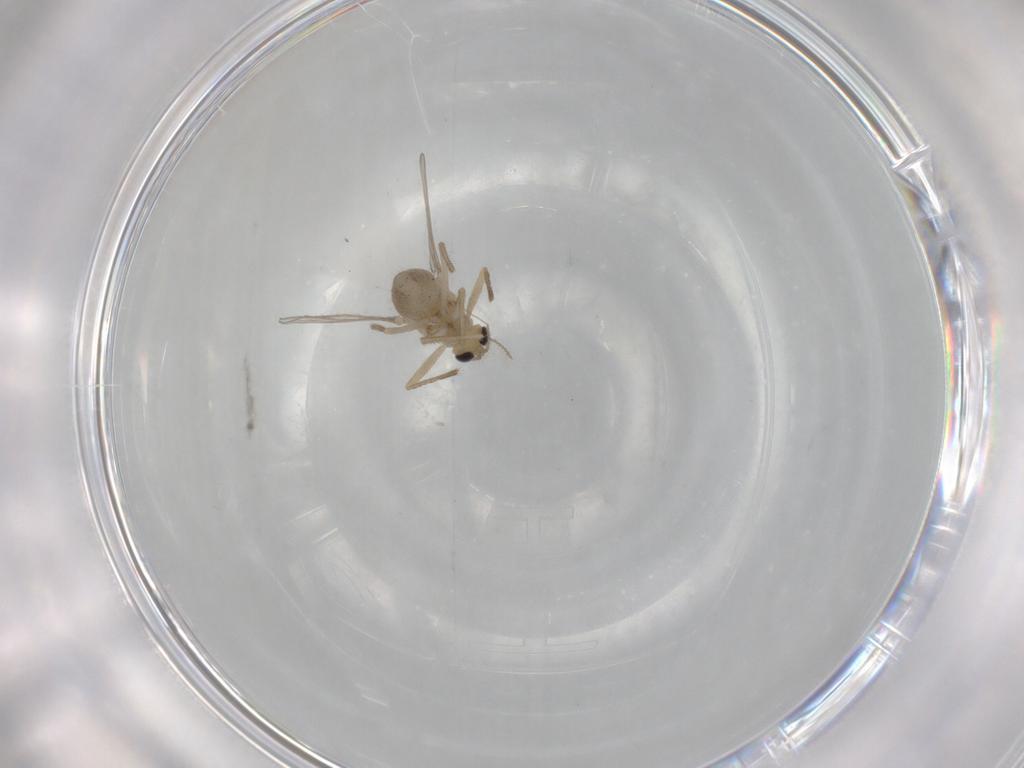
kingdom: Animalia
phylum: Arthropoda
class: Insecta
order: Diptera
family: Chironomidae
